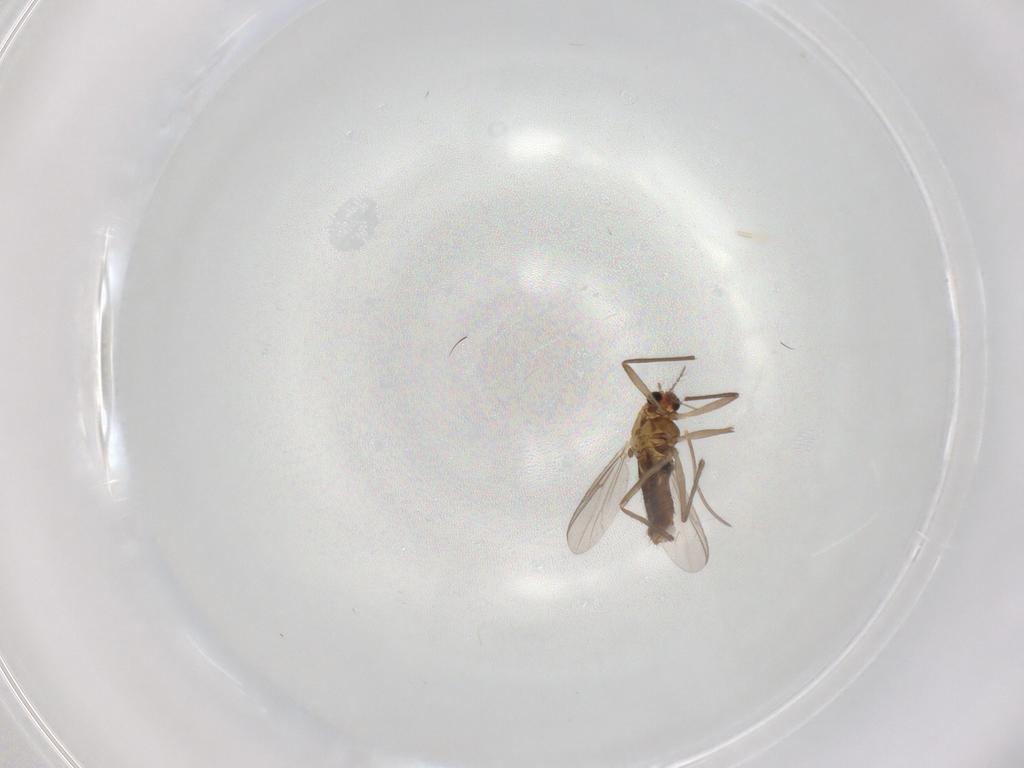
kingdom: Animalia
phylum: Arthropoda
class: Insecta
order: Diptera
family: Chironomidae
